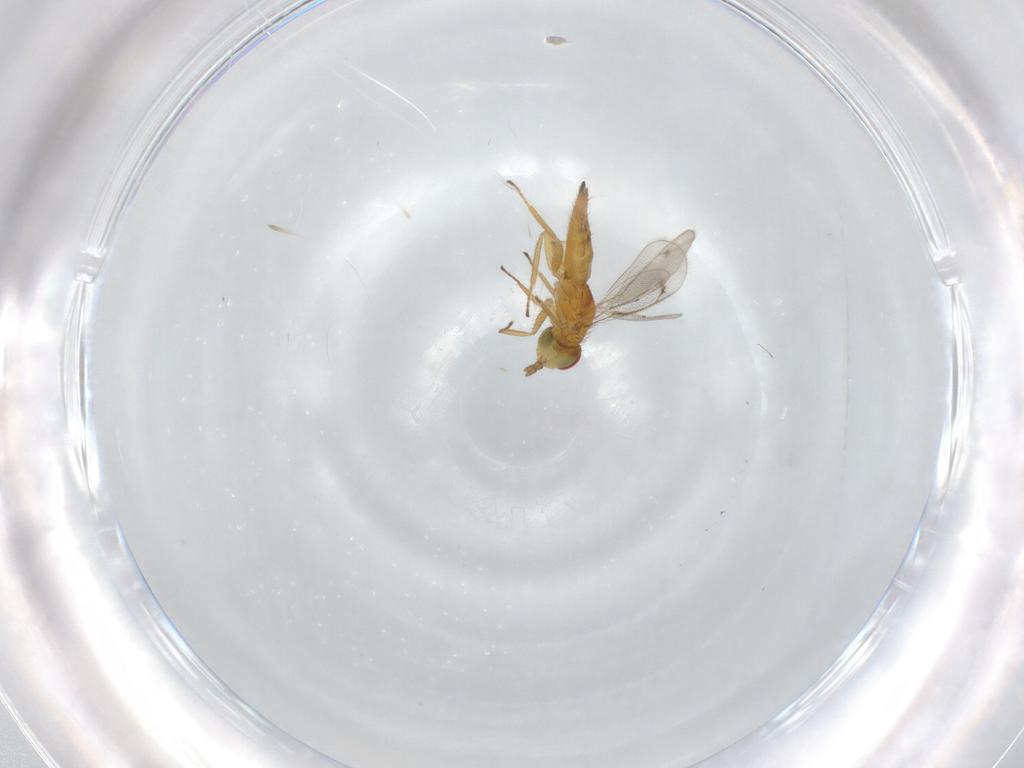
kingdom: Animalia
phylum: Arthropoda
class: Insecta
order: Hymenoptera
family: Eulophidae
